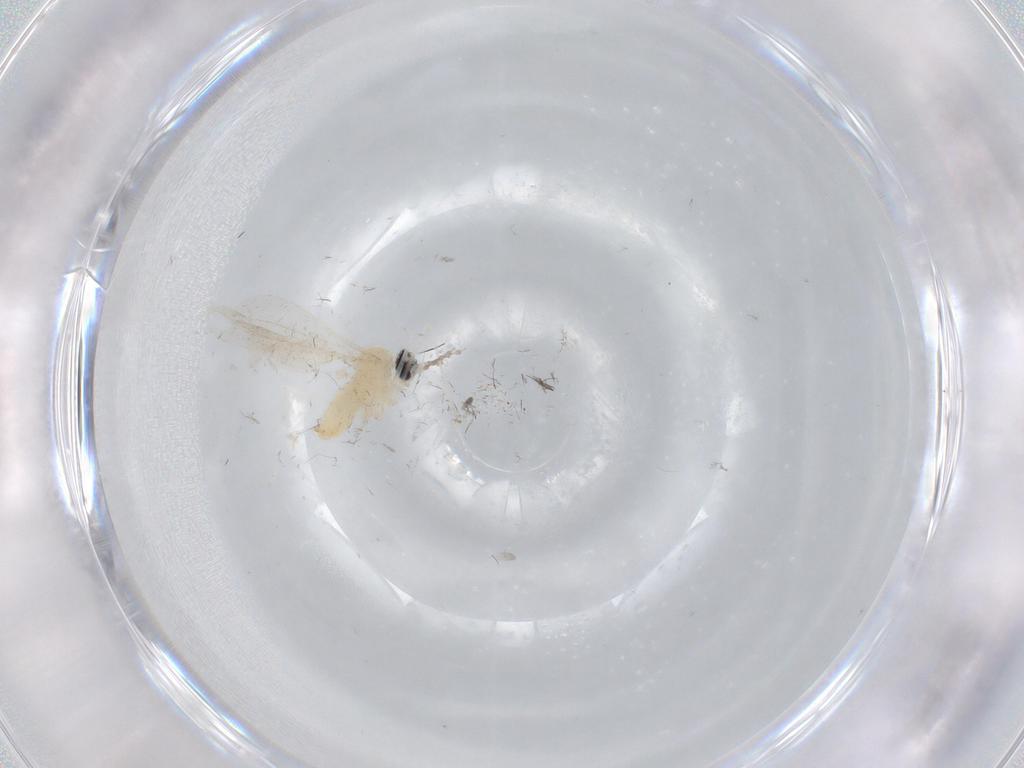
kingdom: Animalia
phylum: Arthropoda
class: Insecta
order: Diptera
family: Cecidomyiidae
